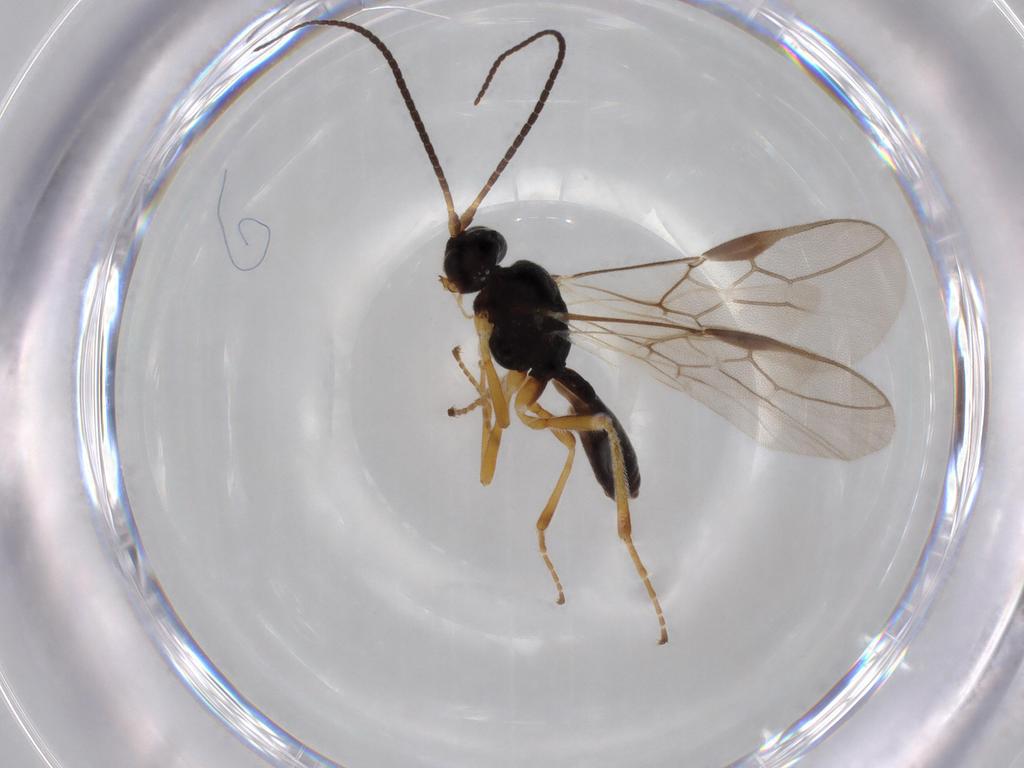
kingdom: Animalia
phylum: Arthropoda
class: Insecta
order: Hymenoptera
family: Braconidae
